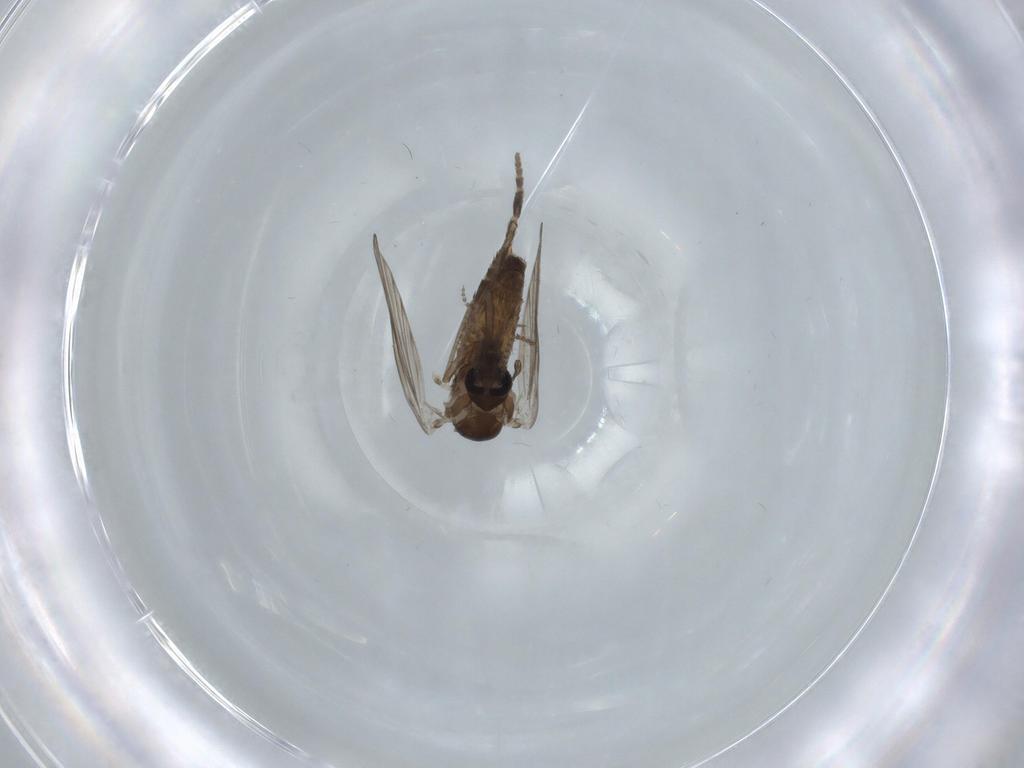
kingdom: Animalia
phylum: Arthropoda
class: Insecta
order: Diptera
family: Psychodidae
